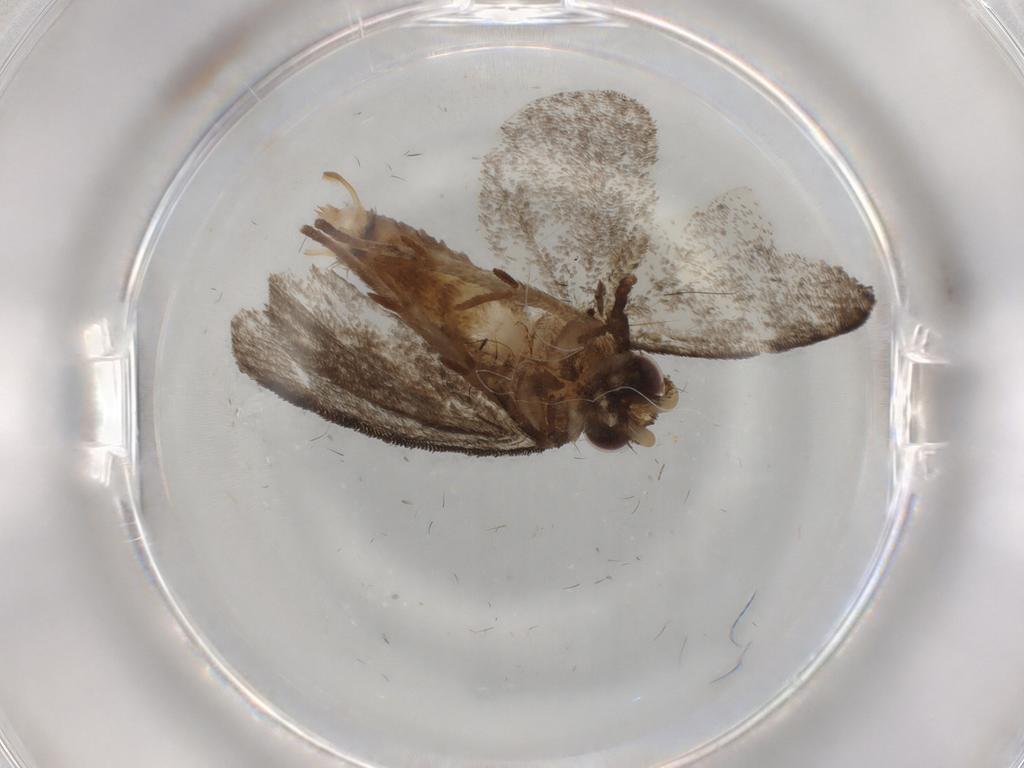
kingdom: Animalia
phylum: Arthropoda
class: Insecta
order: Lepidoptera
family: Tineidae
